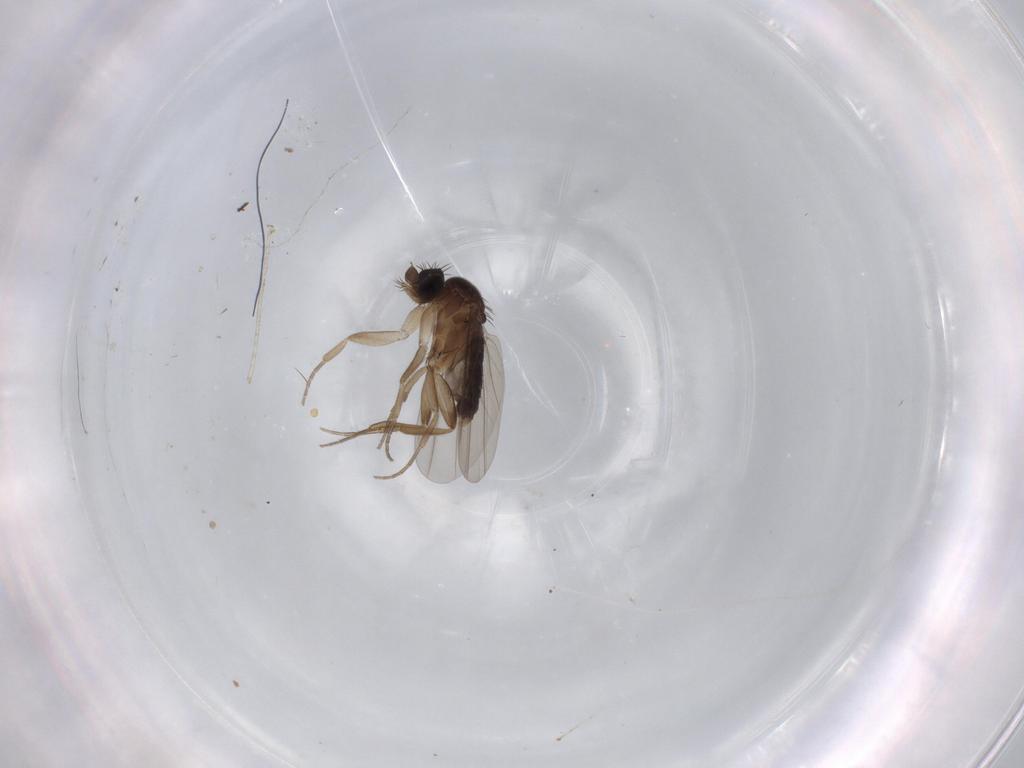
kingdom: Animalia
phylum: Arthropoda
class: Insecta
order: Diptera
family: Phoridae
